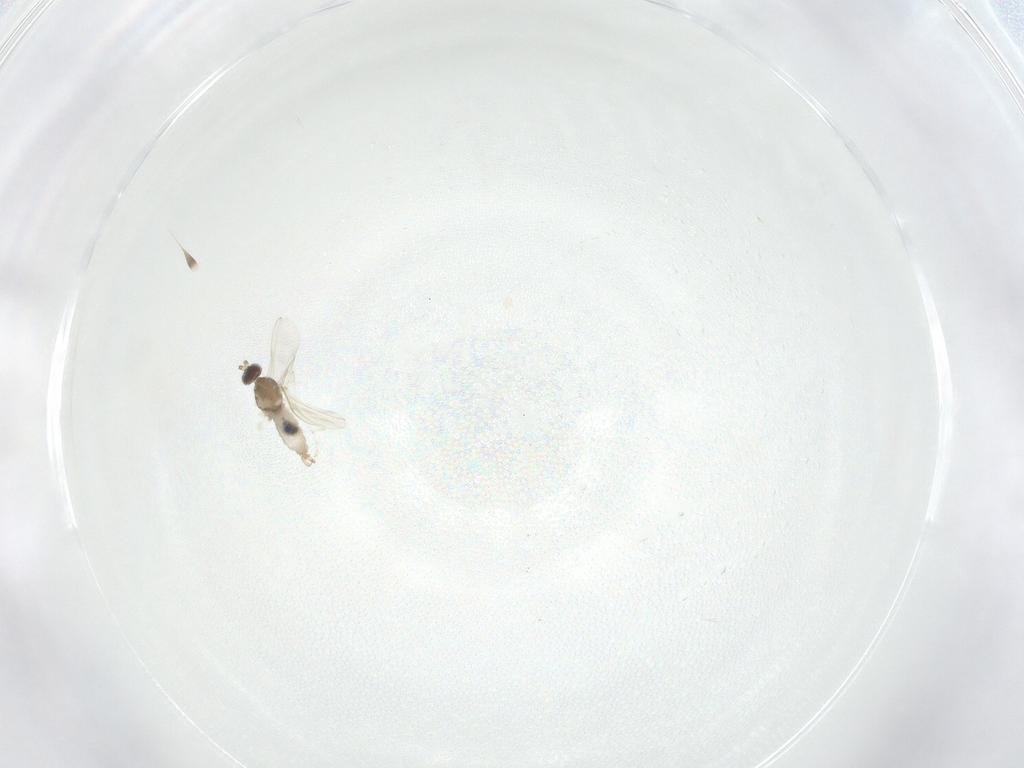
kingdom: Animalia
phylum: Arthropoda
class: Insecta
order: Diptera
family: Cecidomyiidae
